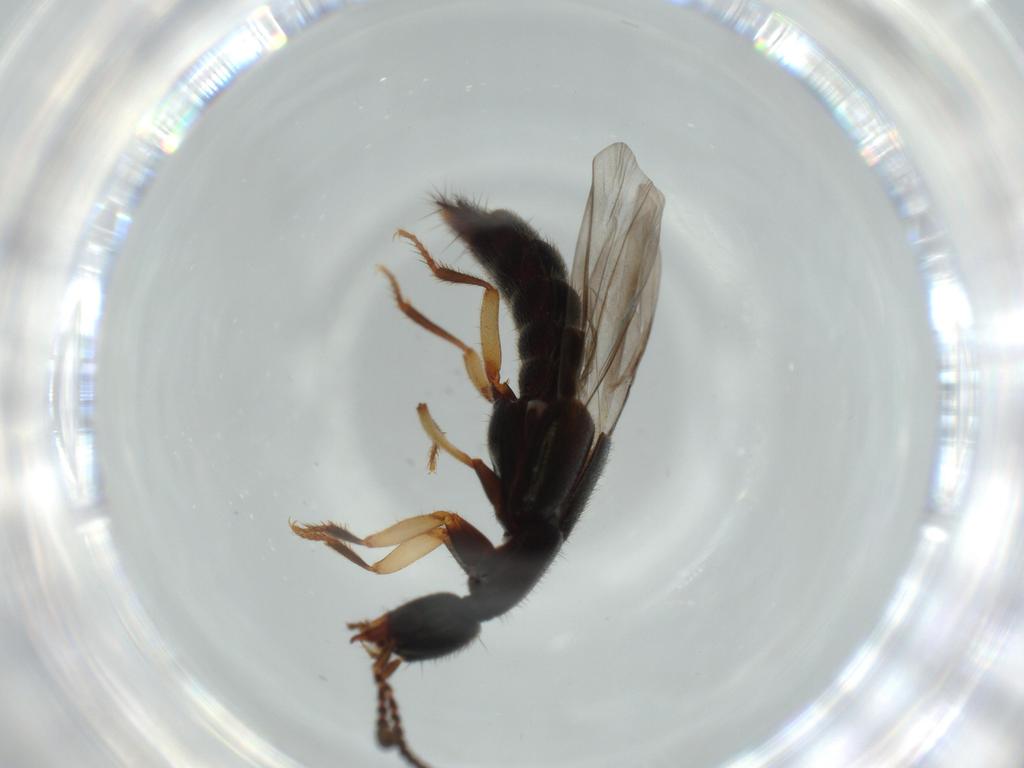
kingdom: Animalia
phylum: Arthropoda
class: Insecta
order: Coleoptera
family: Staphylinidae
